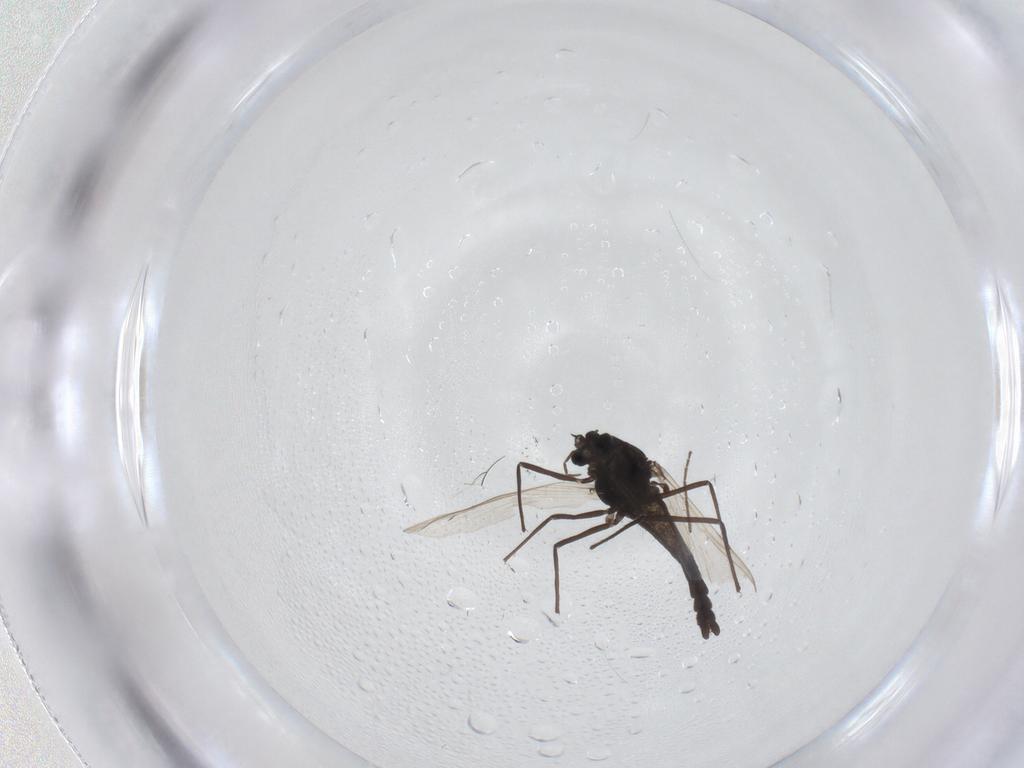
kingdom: Animalia
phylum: Arthropoda
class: Insecta
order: Diptera
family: Chironomidae
